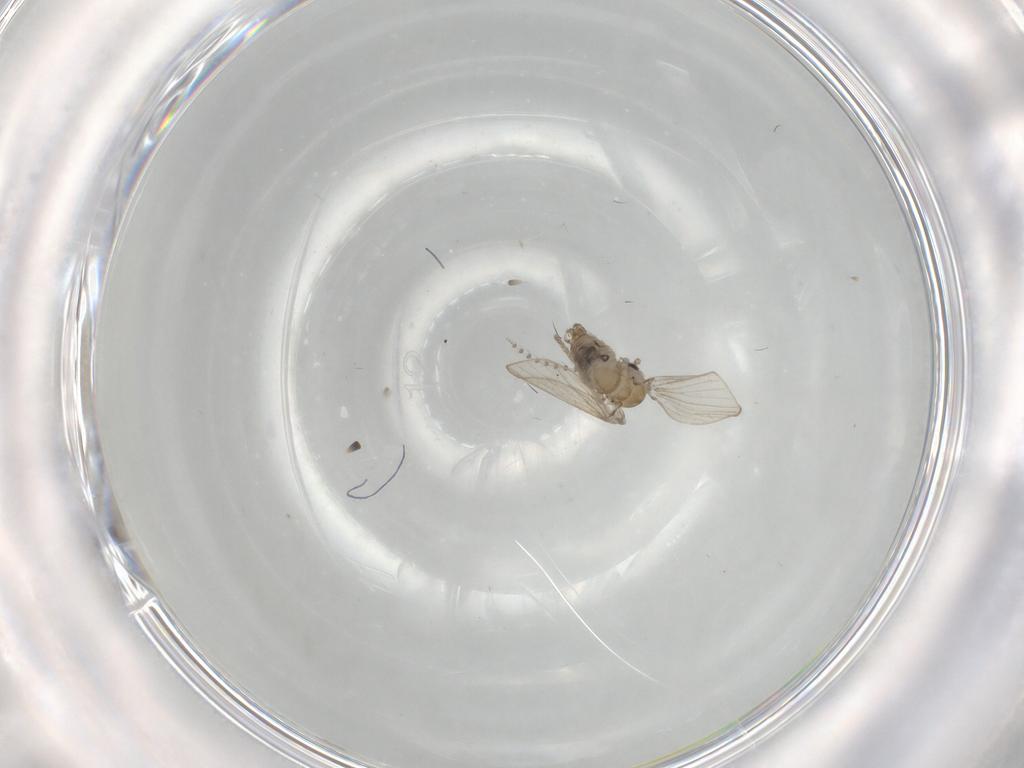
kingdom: Animalia
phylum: Arthropoda
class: Insecta
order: Diptera
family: Psychodidae
